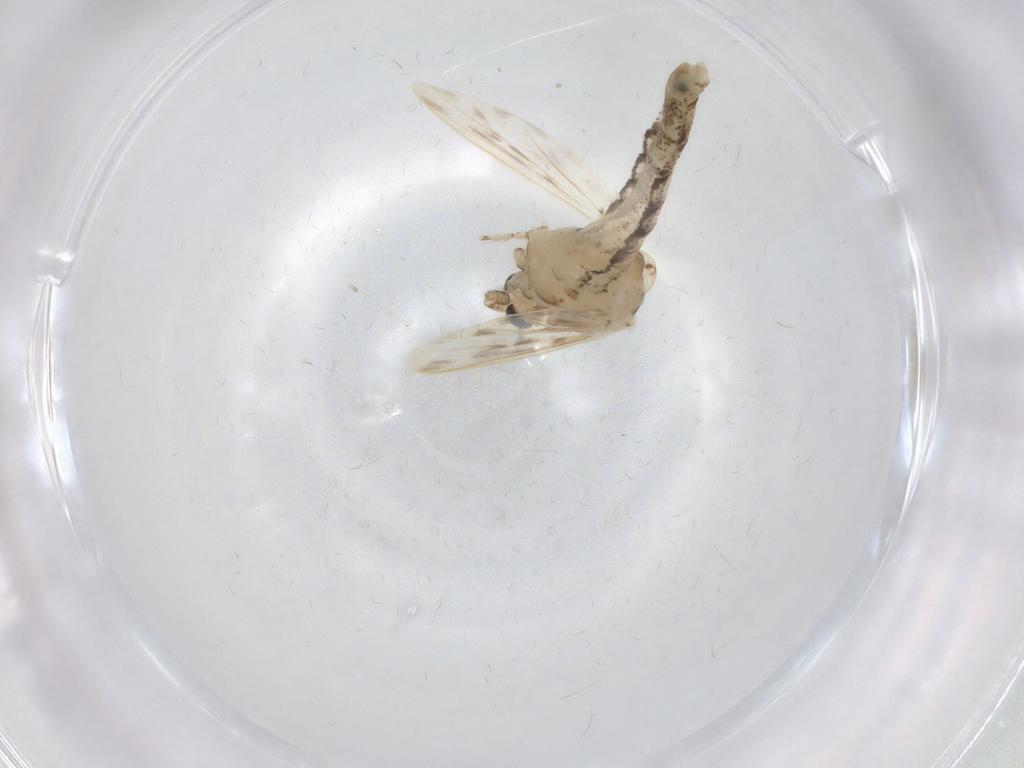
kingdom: Animalia
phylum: Arthropoda
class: Insecta
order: Diptera
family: Chaoboridae
